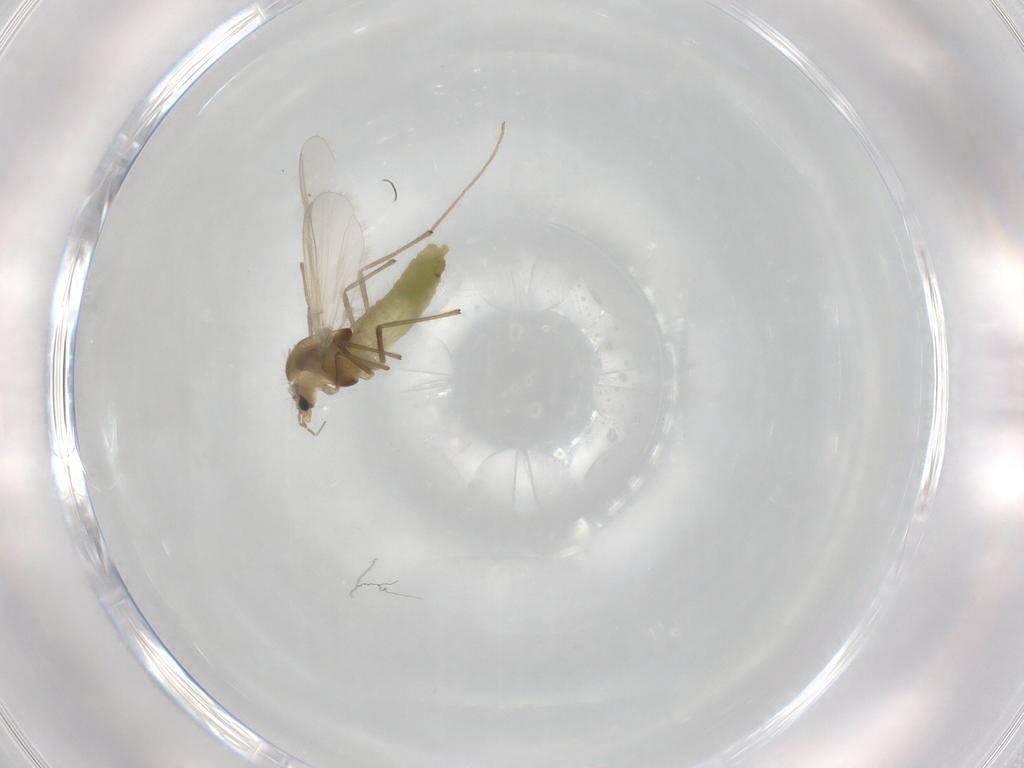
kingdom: Animalia
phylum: Arthropoda
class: Insecta
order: Diptera
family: Chironomidae
